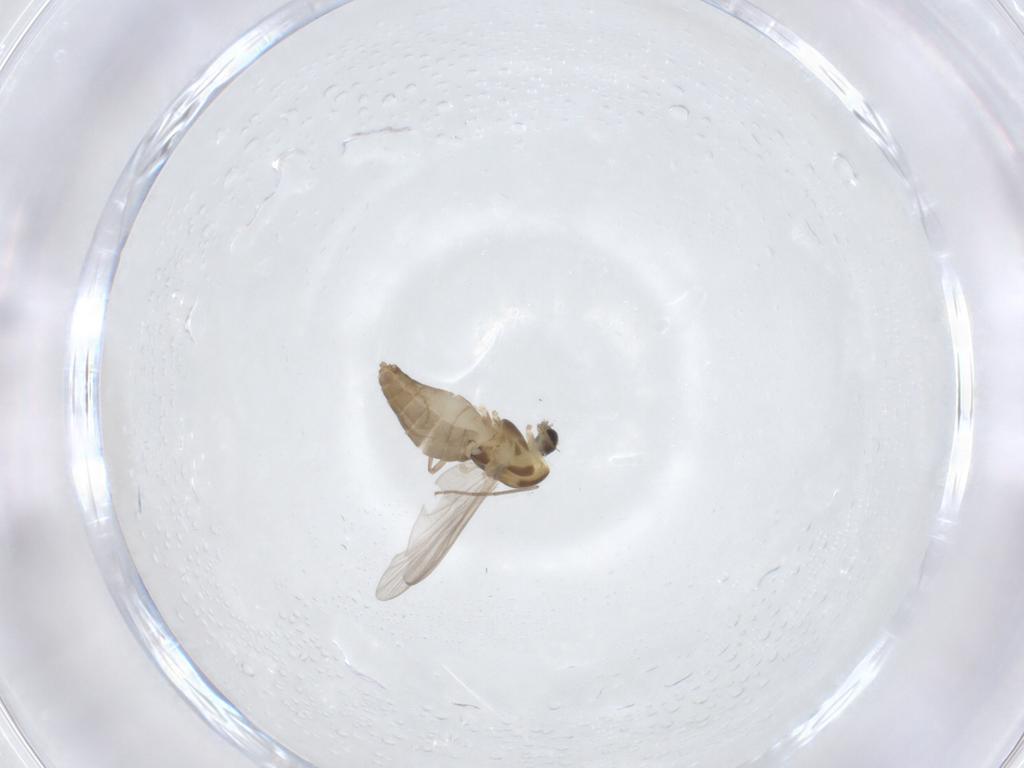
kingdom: Animalia
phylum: Arthropoda
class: Insecta
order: Diptera
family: Chironomidae
